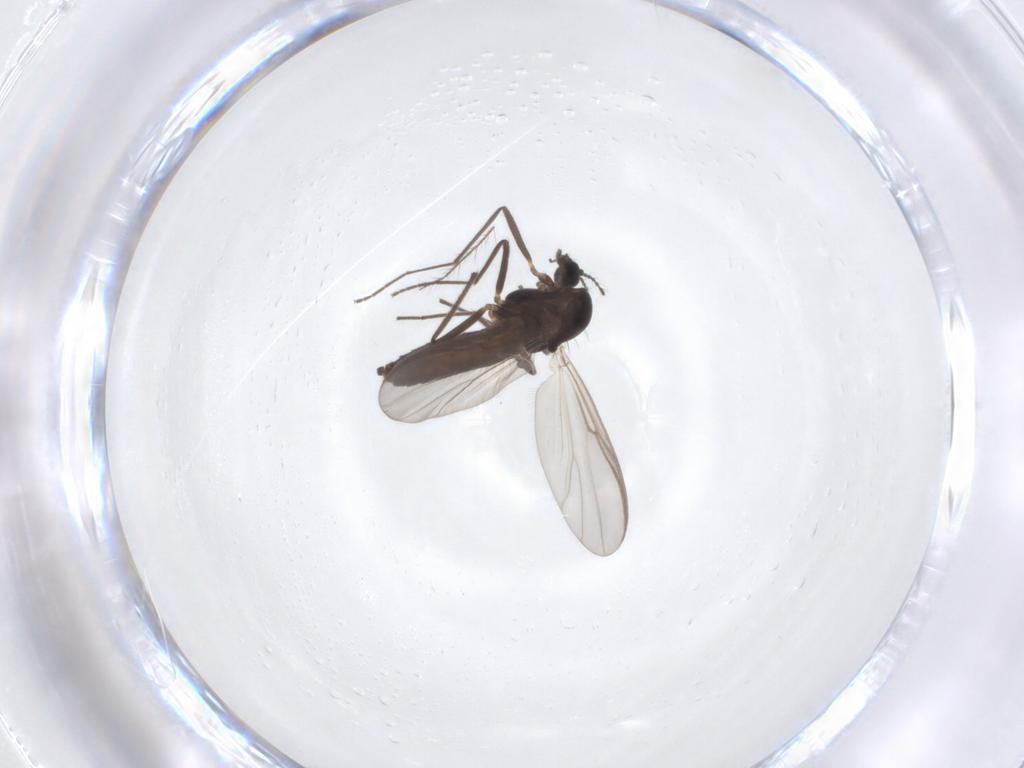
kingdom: Animalia
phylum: Arthropoda
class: Insecta
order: Diptera
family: Chironomidae
